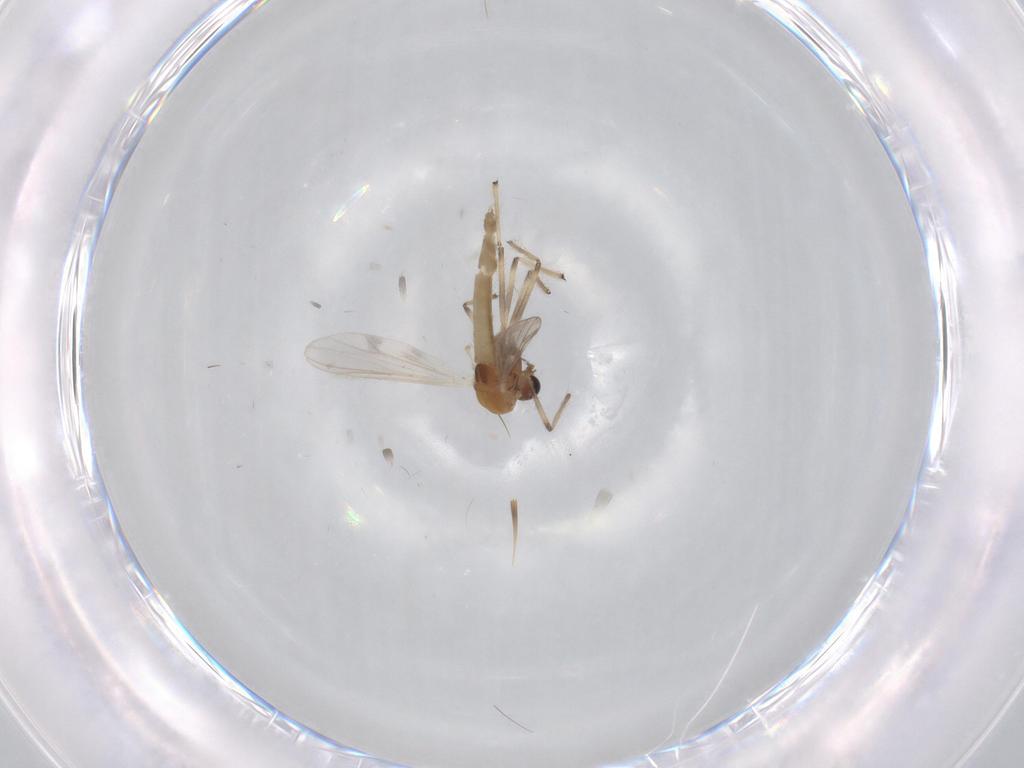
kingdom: Animalia
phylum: Arthropoda
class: Insecta
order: Diptera
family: Chironomidae
